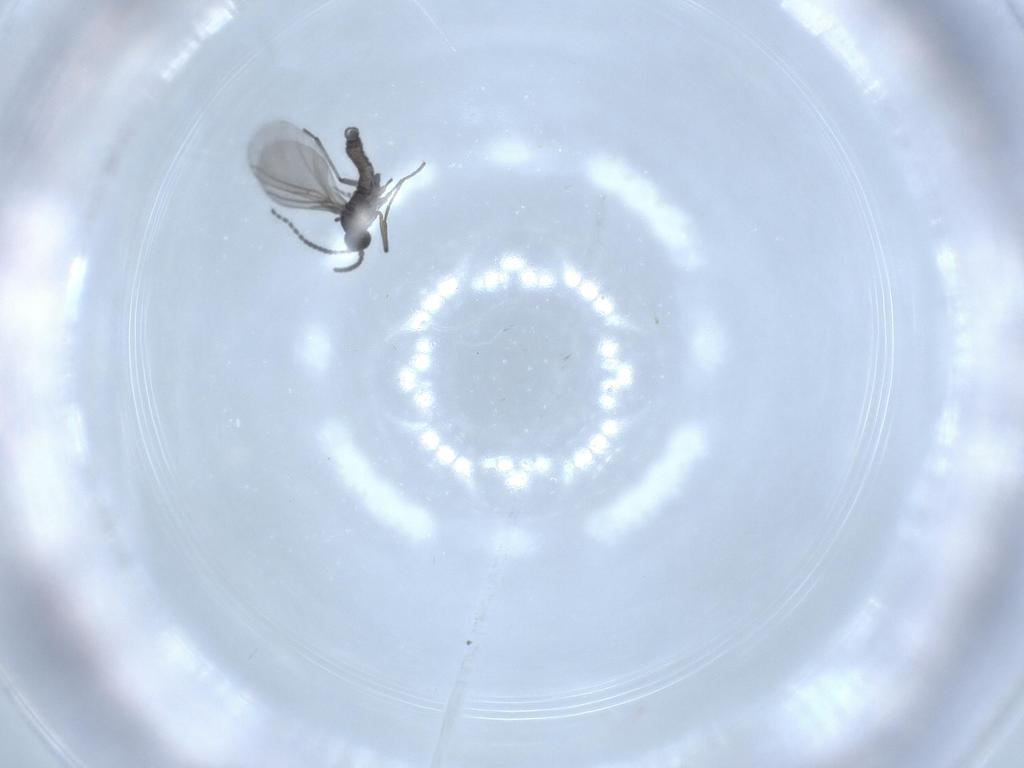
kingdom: Animalia
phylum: Arthropoda
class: Insecta
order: Diptera
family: Sciaridae
